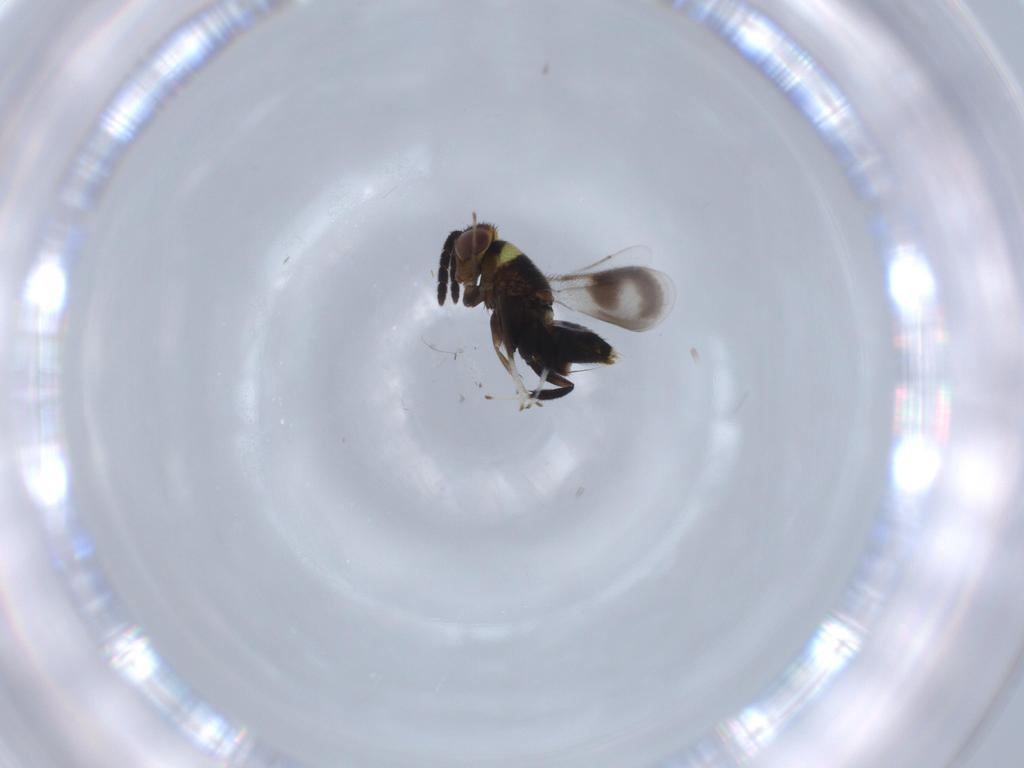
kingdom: Animalia
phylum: Arthropoda
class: Insecta
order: Hymenoptera
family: Aphelinidae
